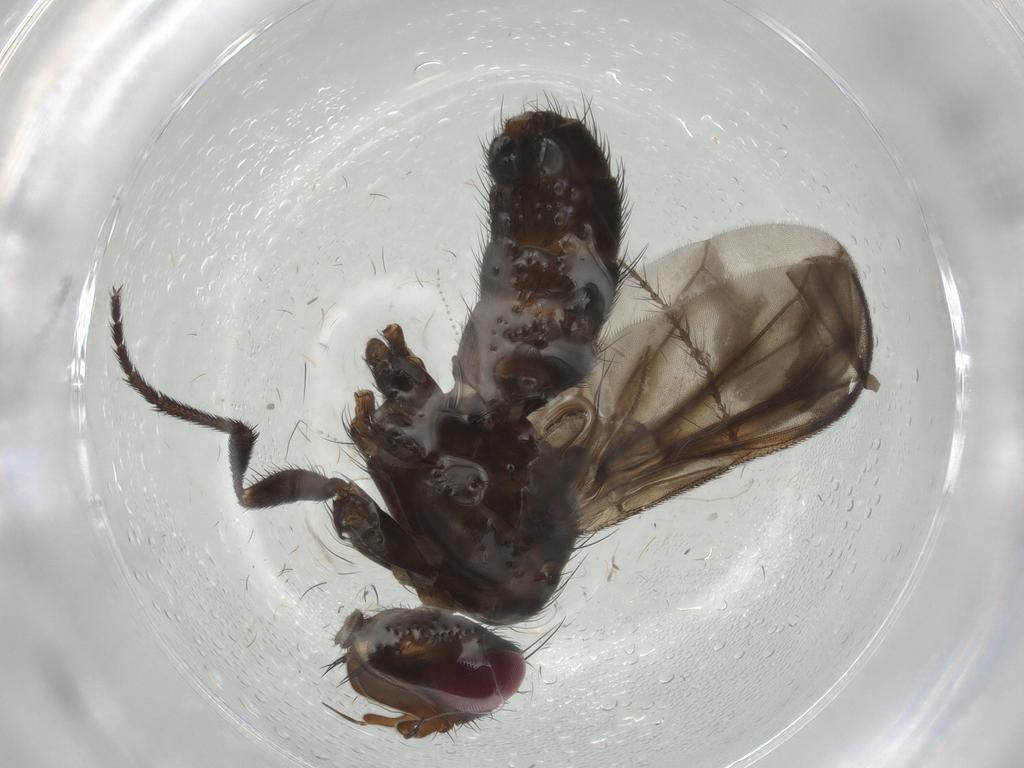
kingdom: Animalia
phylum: Arthropoda
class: Insecta
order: Diptera
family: Calliphoridae
